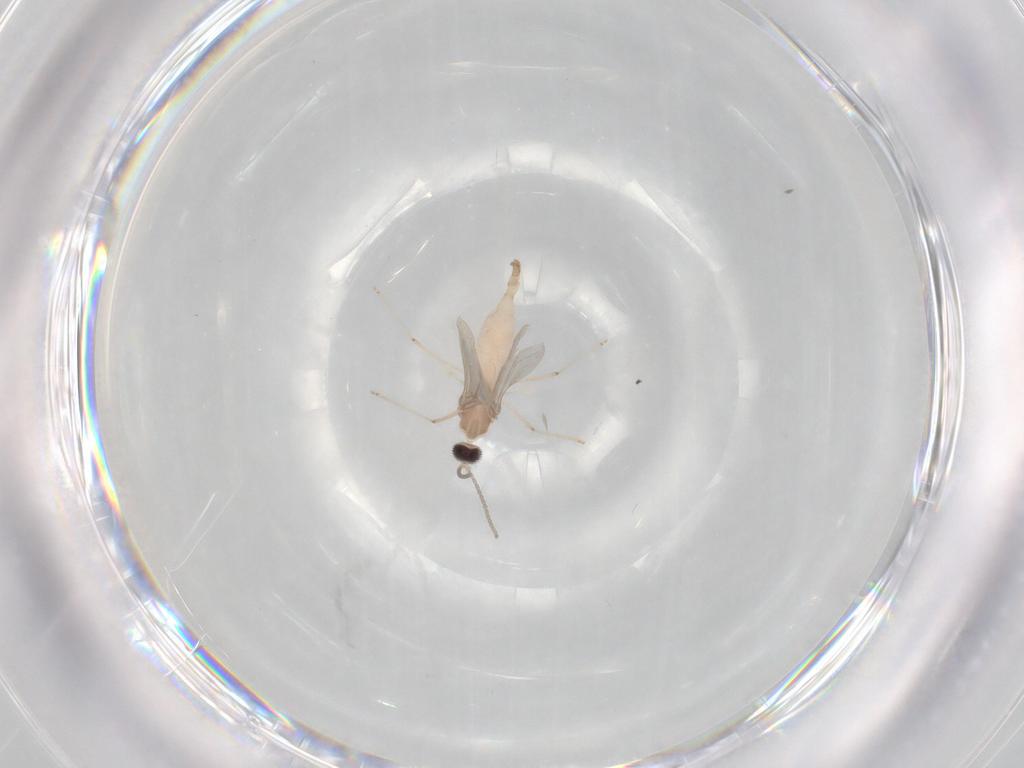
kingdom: Animalia
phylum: Arthropoda
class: Insecta
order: Diptera
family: Cecidomyiidae
